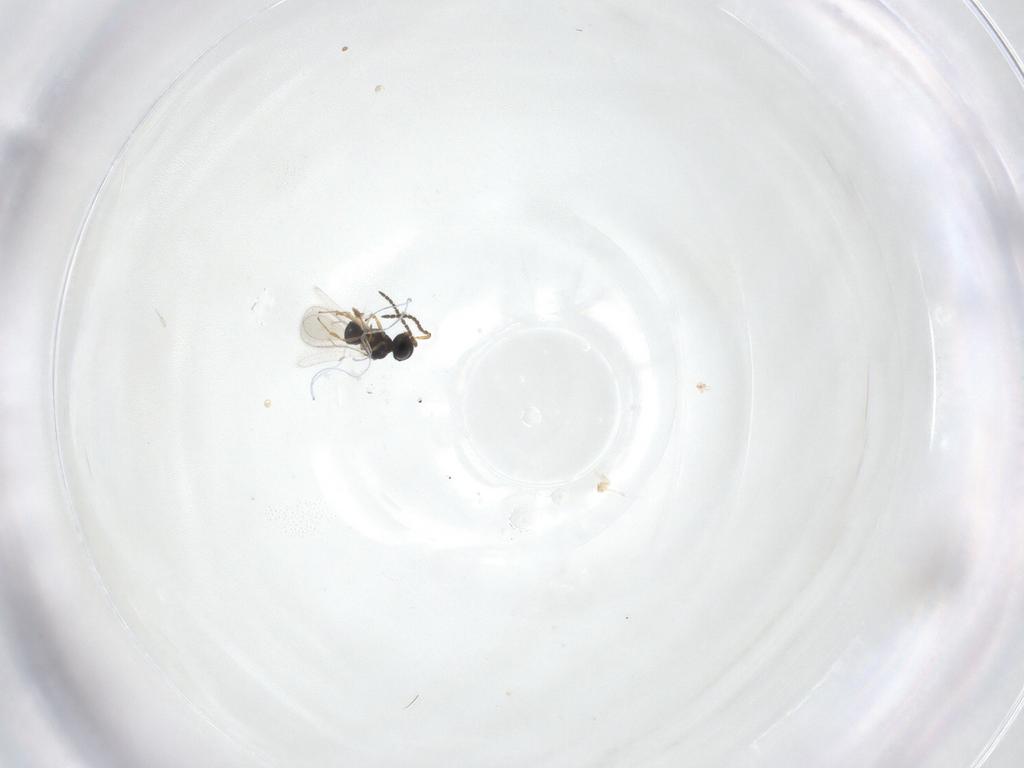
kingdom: Animalia
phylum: Arthropoda
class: Insecta
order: Hymenoptera
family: Scelionidae
